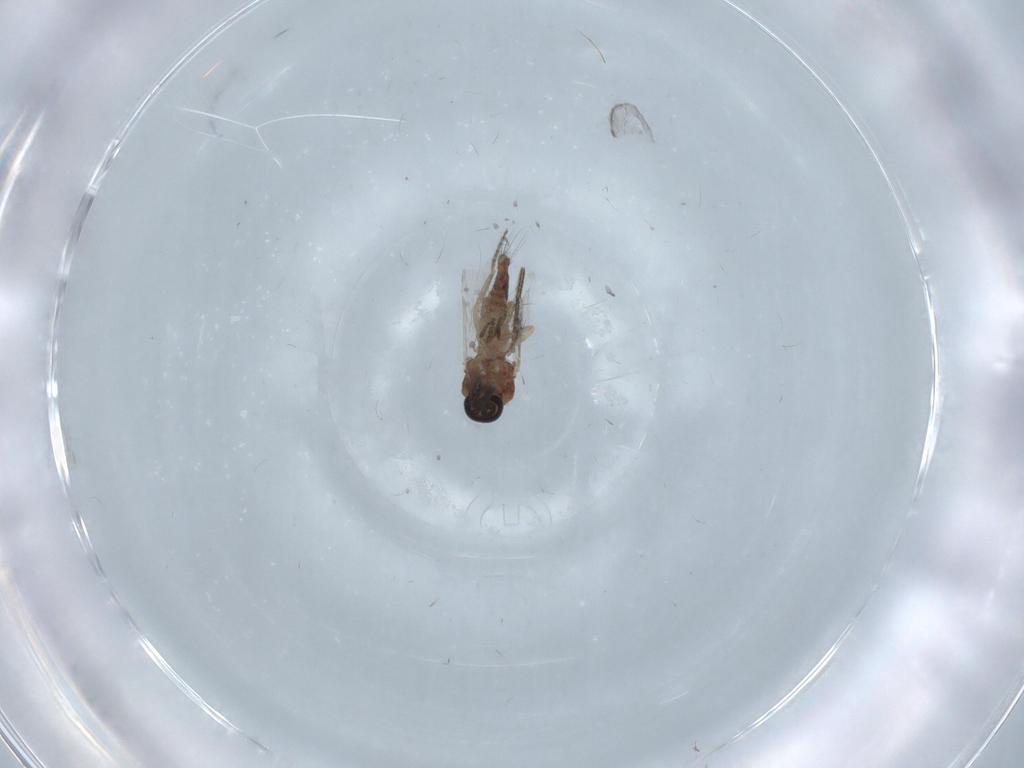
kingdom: Animalia
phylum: Arthropoda
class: Insecta
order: Diptera
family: Ceratopogonidae
